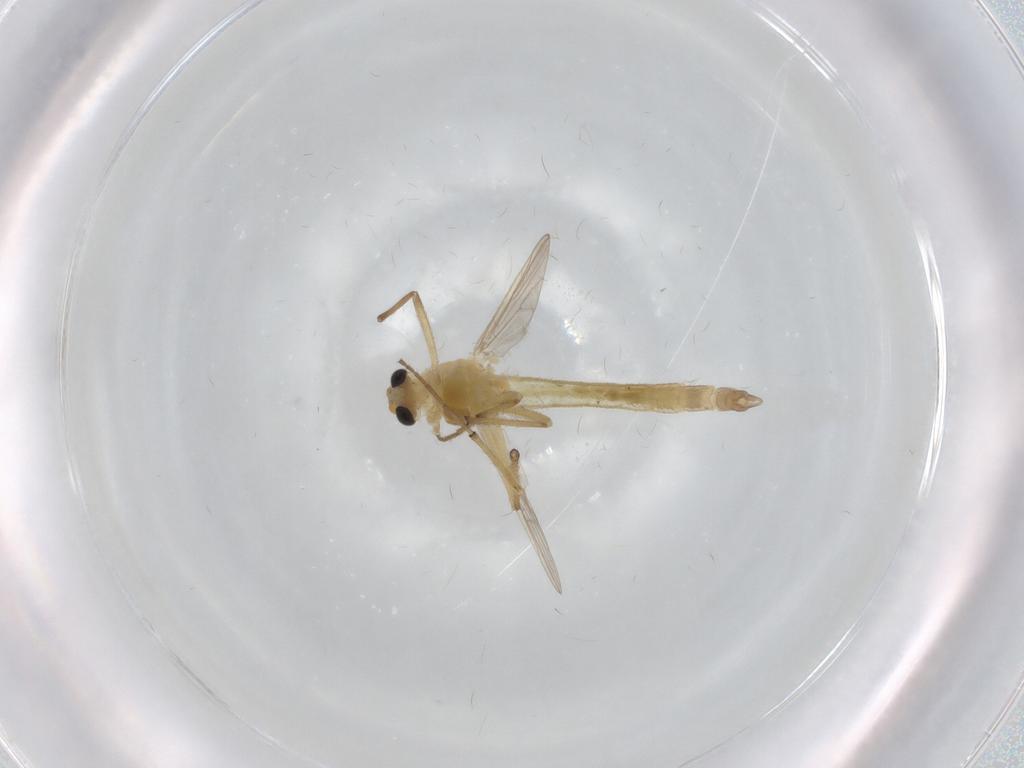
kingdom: Animalia
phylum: Arthropoda
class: Insecta
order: Diptera
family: Chironomidae
